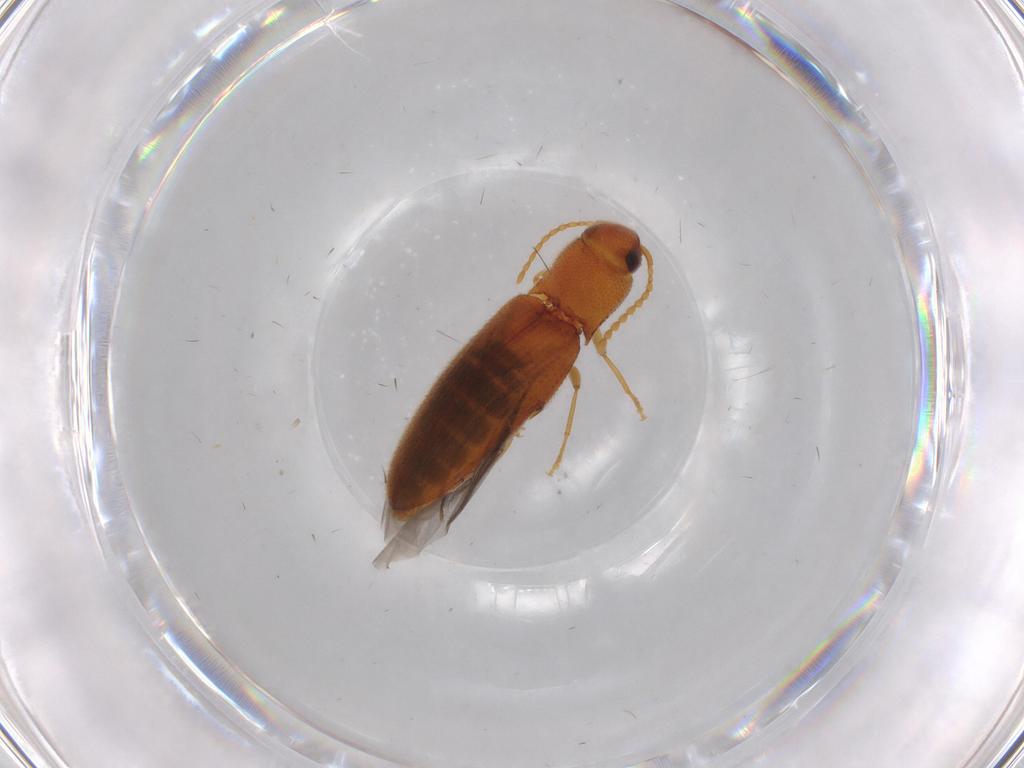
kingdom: Animalia
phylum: Arthropoda
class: Insecta
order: Coleoptera
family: Elateridae
